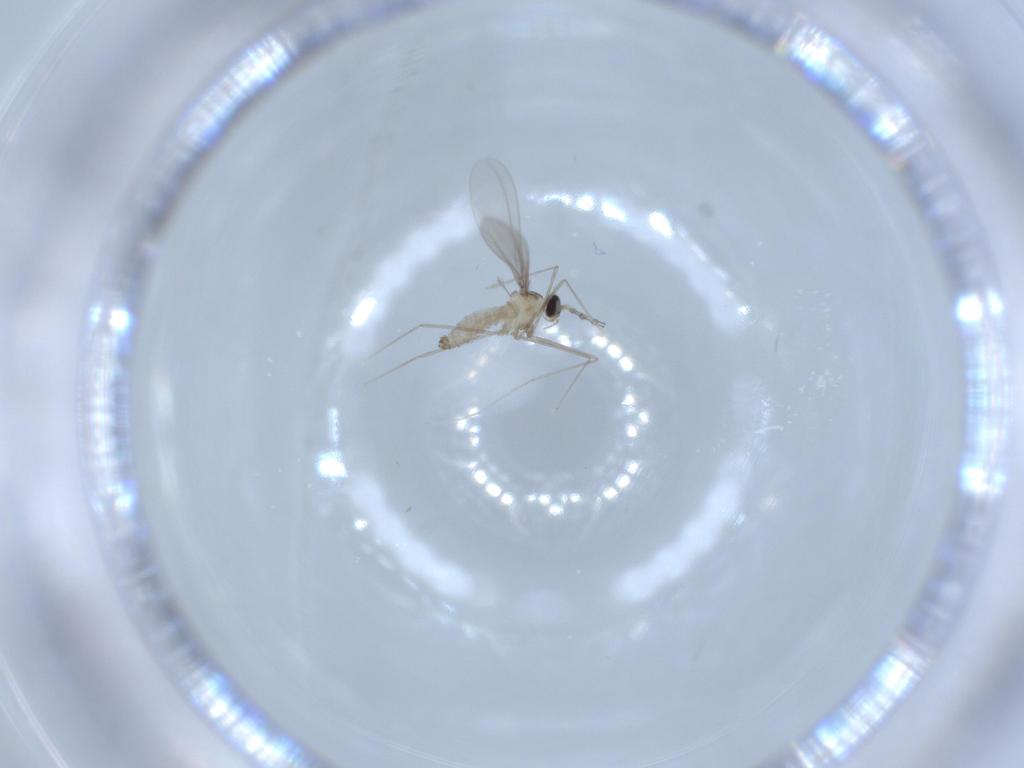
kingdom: Animalia
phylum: Arthropoda
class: Insecta
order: Diptera
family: Cecidomyiidae
